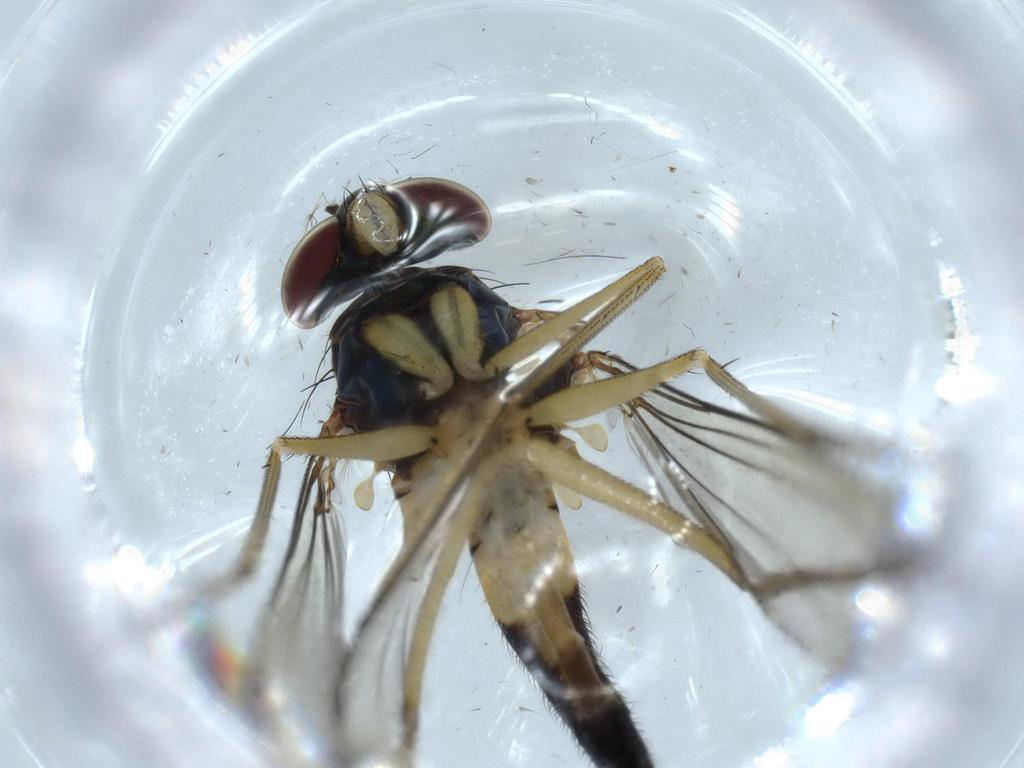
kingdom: Animalia
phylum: Arthropoda
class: Insecta
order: Diptera
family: Dolichopodidae
